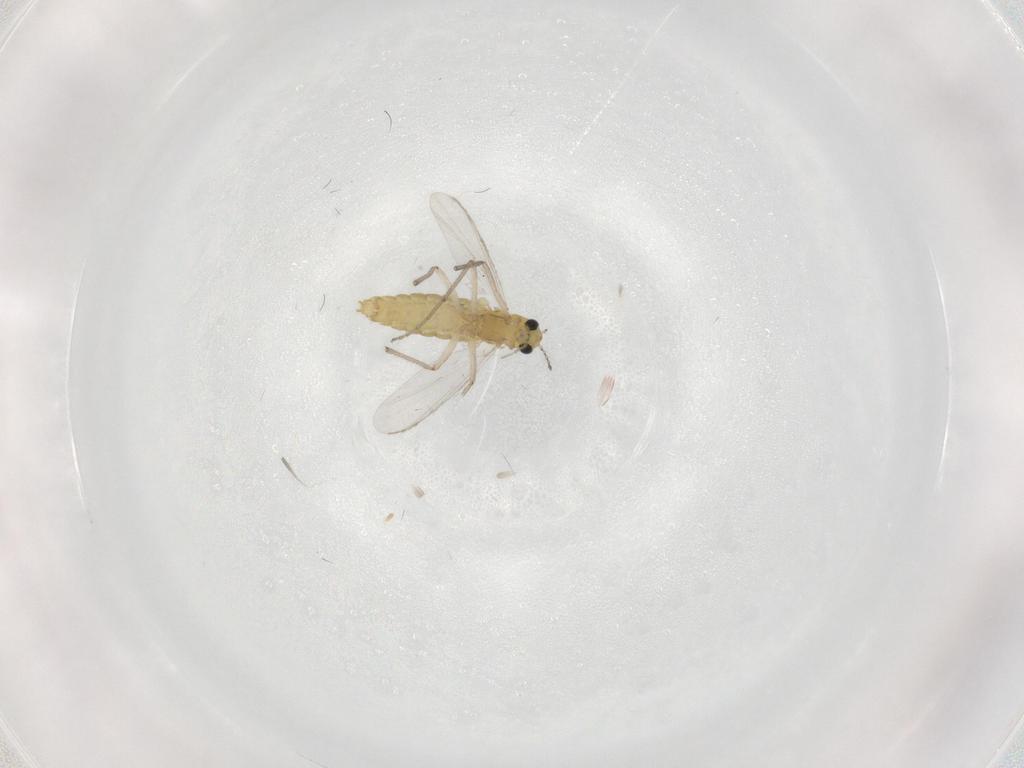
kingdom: Animalia
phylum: Arthropoda
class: Insecta
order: Diptera
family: Chironomidae
